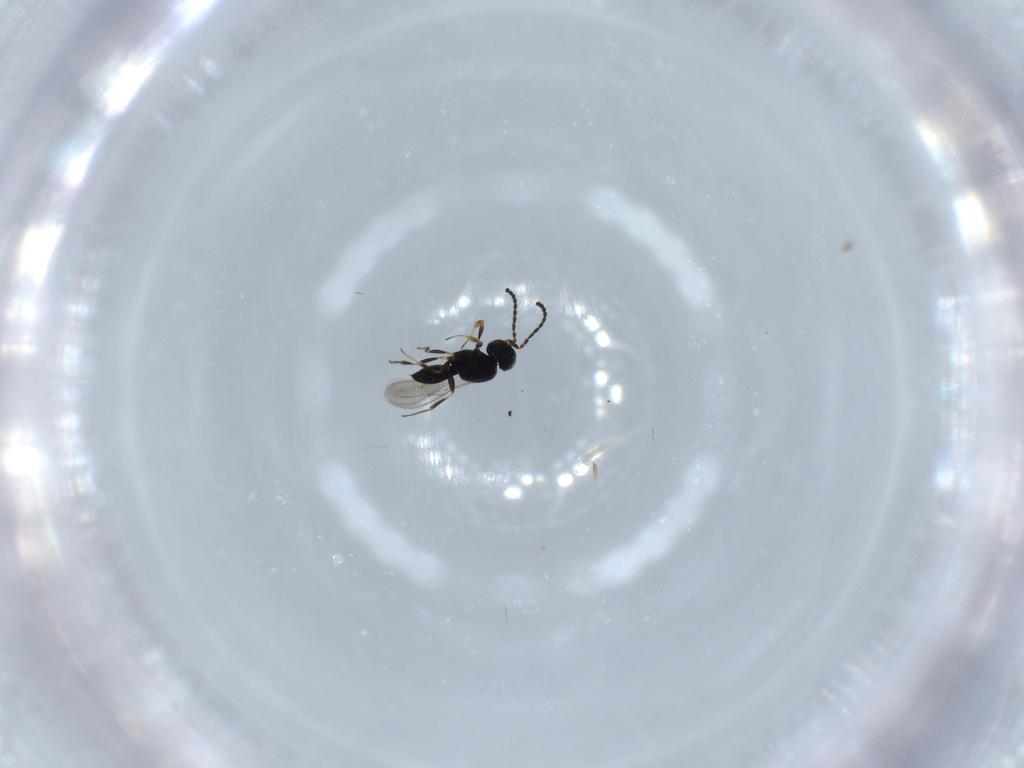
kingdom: Animalia
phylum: Arthropoda
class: Insecta
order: Hymenoptera
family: Scelionidae
